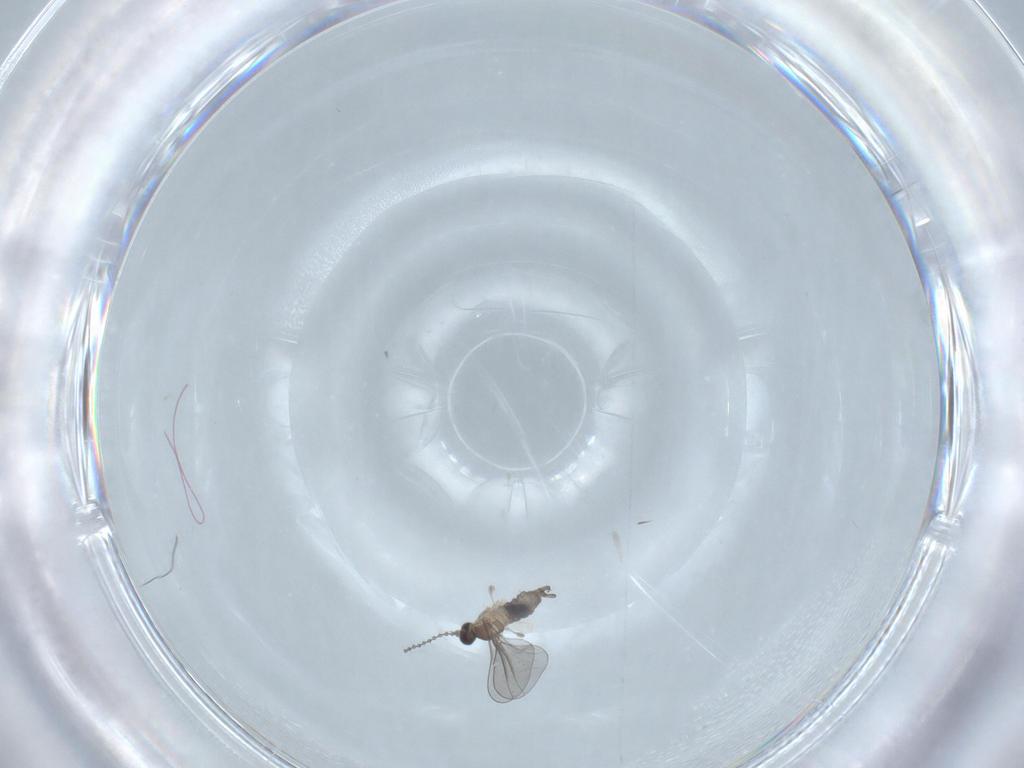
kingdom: Animalia
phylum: Arthropoda
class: Insecta
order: Diptera
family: Cecidomyiidae
